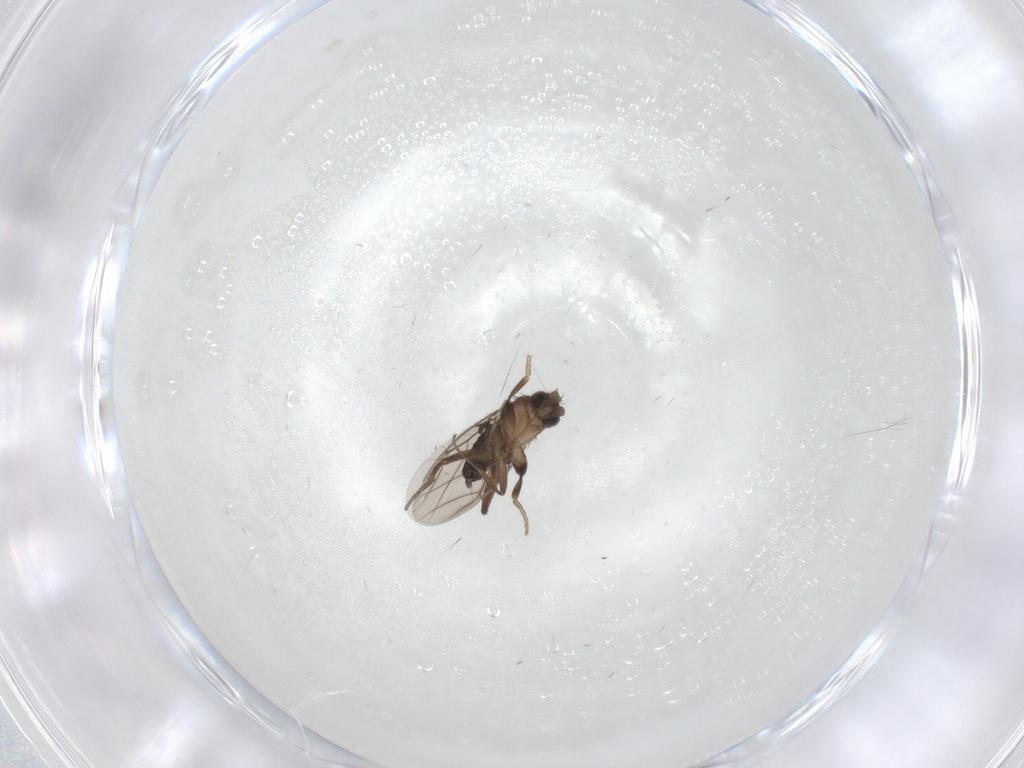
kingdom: Animalia
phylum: Arthropoda
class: Insecta
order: Diptera
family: Phoridae
